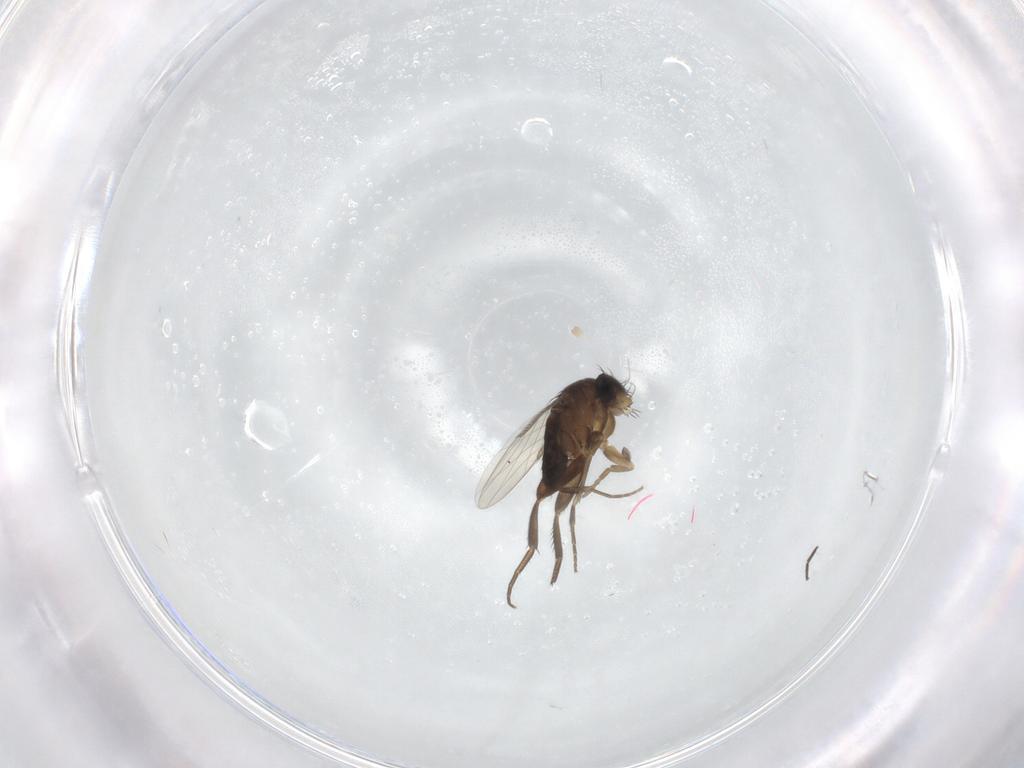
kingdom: Animalia
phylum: Arthropoda
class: Insecta
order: Diptera
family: Phoridae
